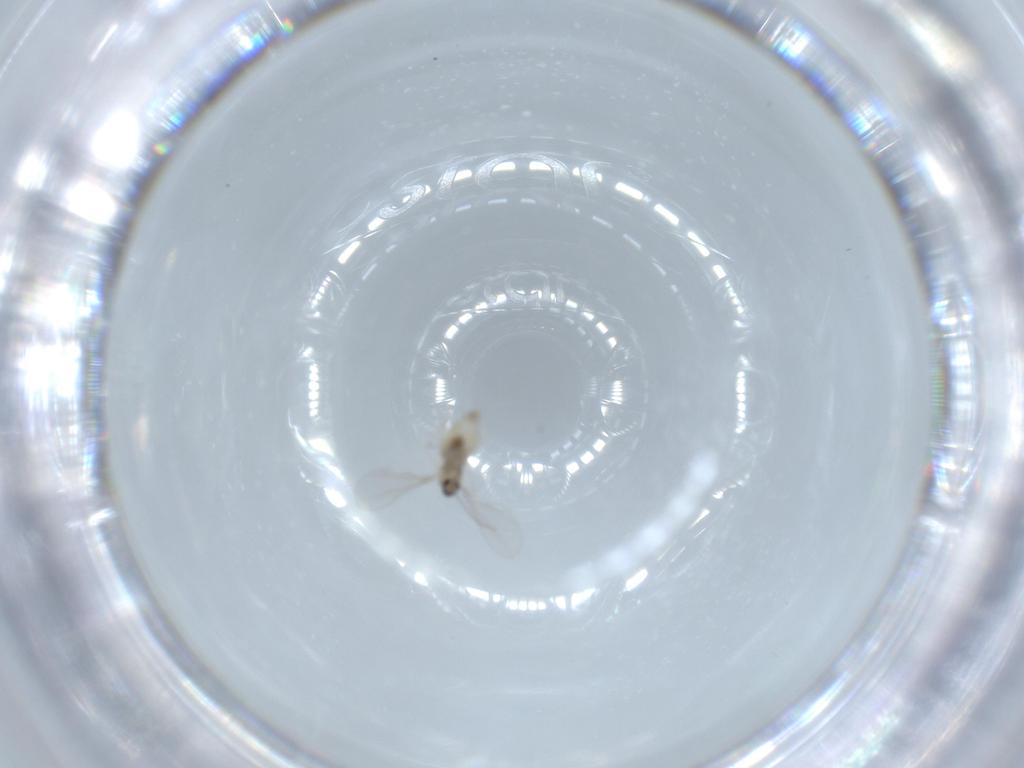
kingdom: Animalia
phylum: Arthropoda
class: Insecta
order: Diptera
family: Cecidomyiidae
